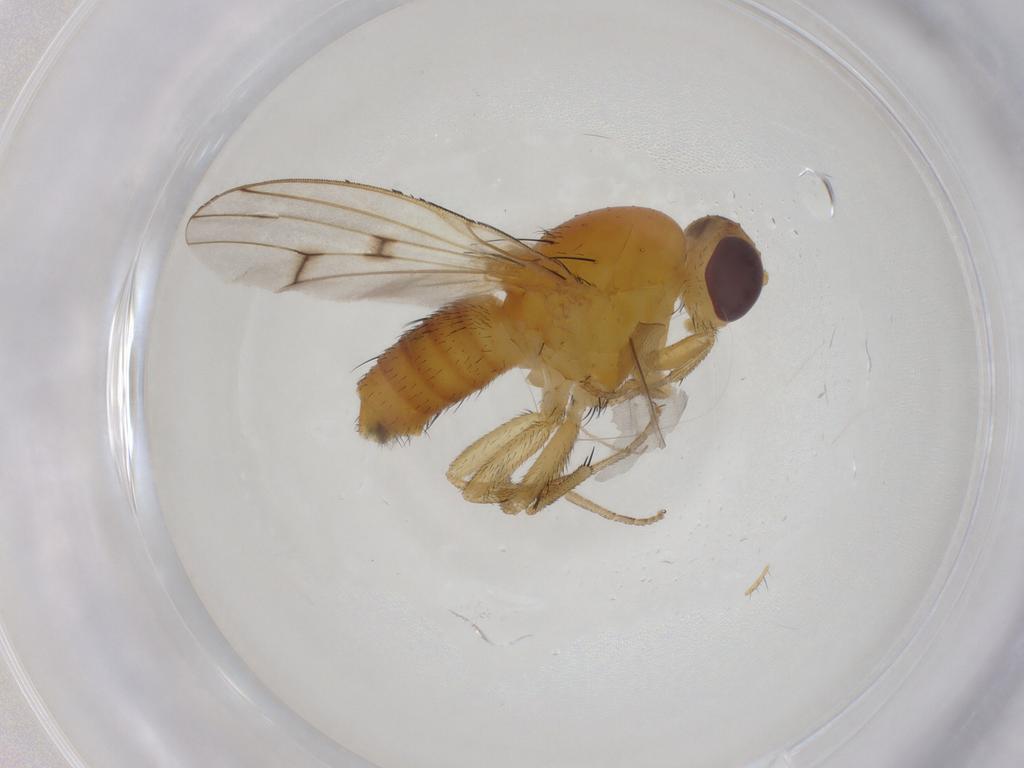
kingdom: Animalia
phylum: Arthropoda
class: Insecta
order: Diptera
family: Lauxaniidae
